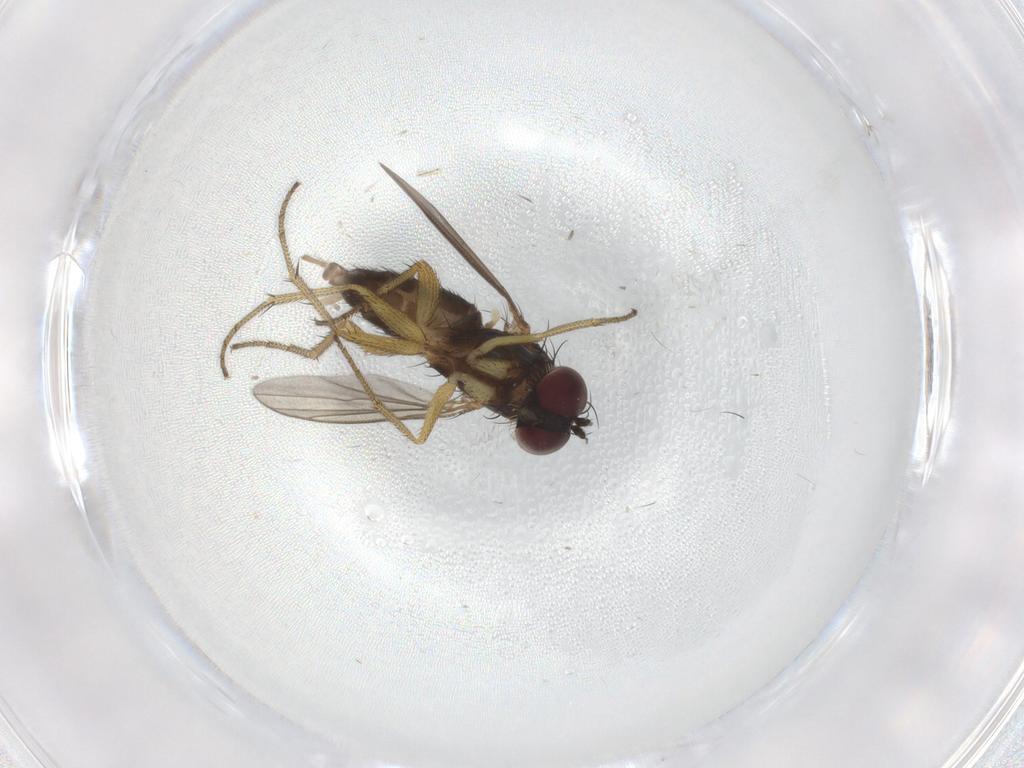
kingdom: Animalia
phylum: Arthropoda
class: Insecta
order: Diptera
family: Dolichopodidae
